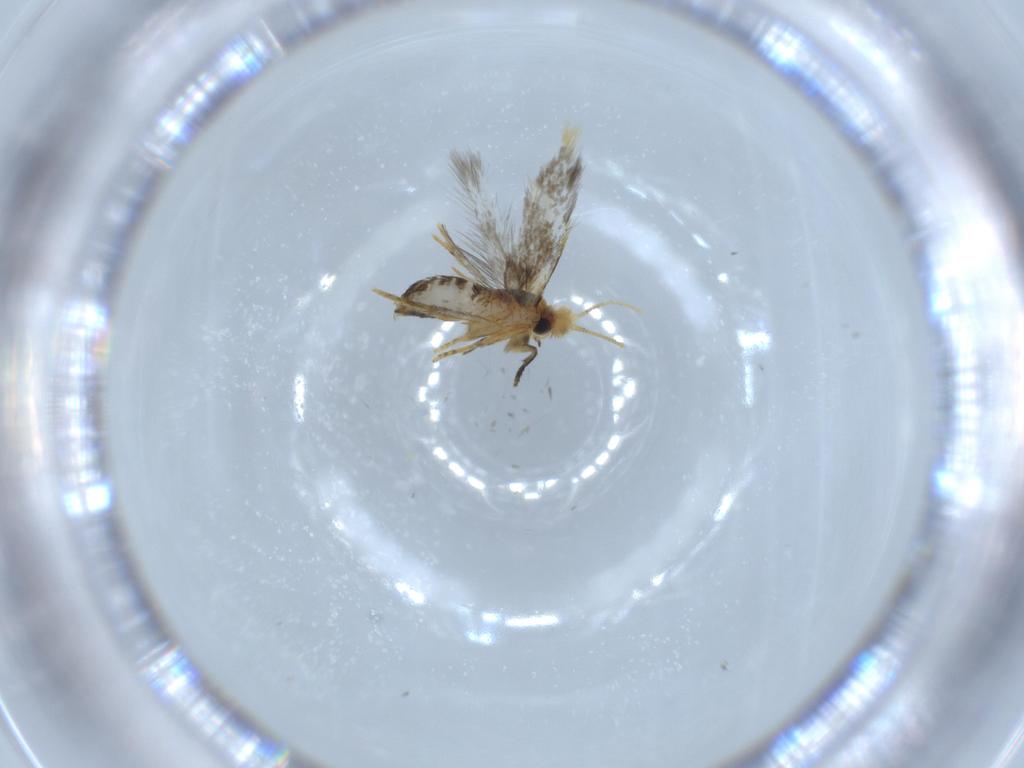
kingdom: Animalia
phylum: Arthropoda
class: Insecta
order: Lepidoptera
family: Copromorphidae
